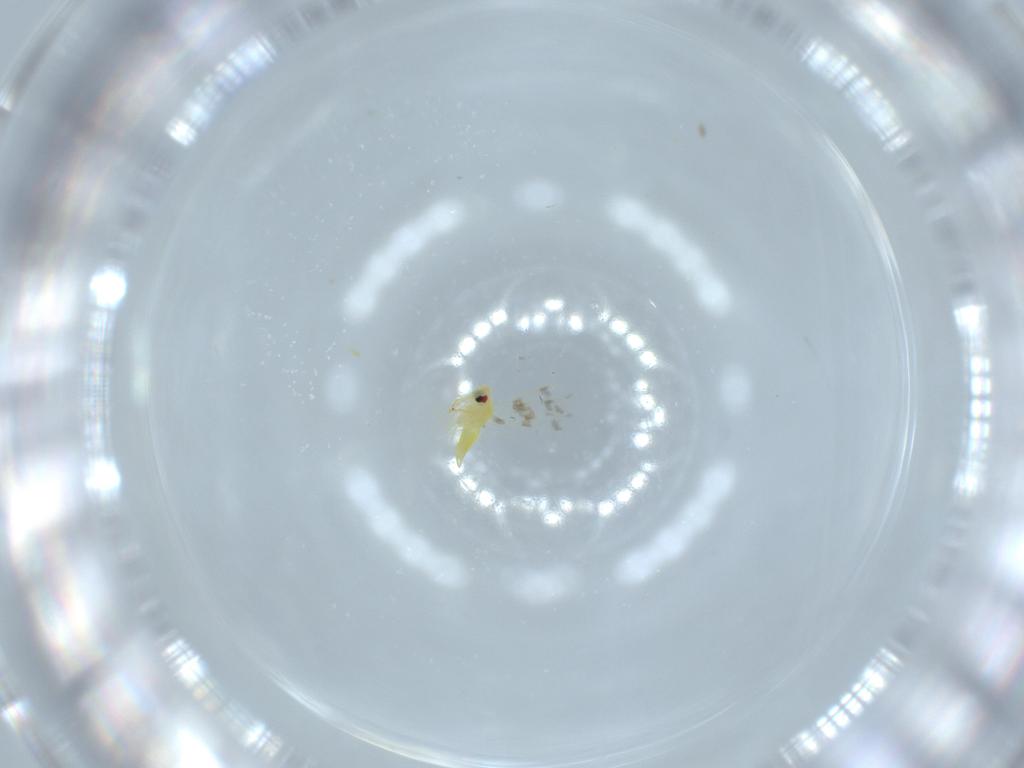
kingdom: Animalia
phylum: Arthropoda
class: Insecta
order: Hemiptera
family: Aleyrodidae
